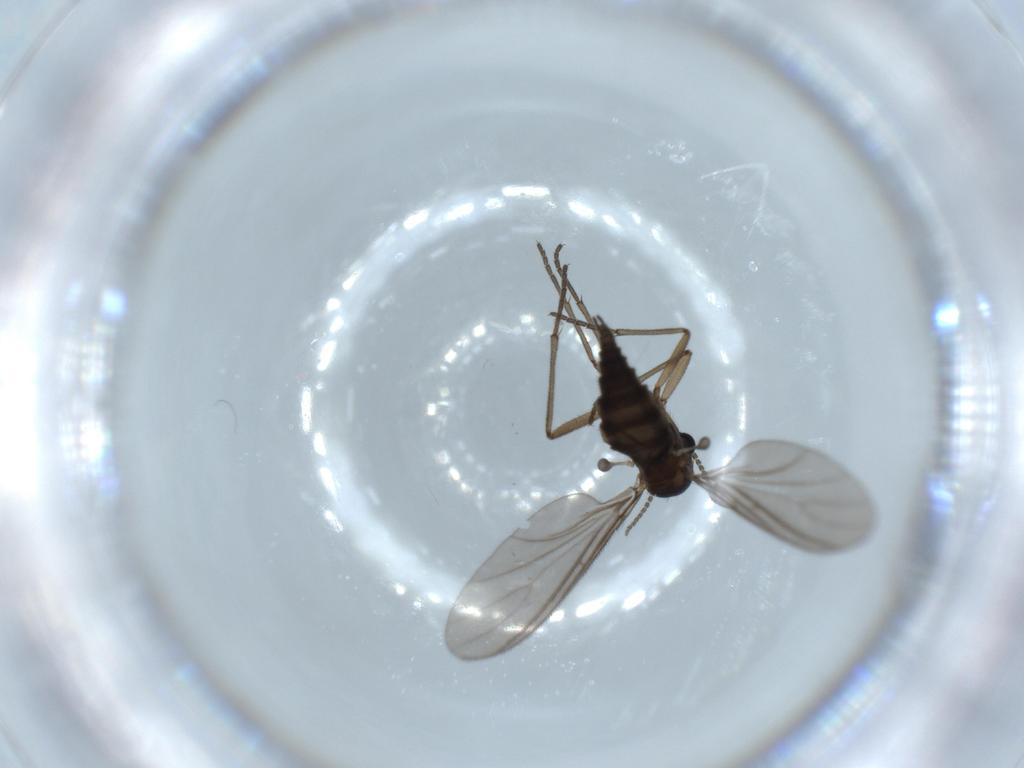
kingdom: Animalia
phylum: Arthropoda
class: Insecta
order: Diptera
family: Sciaridae
